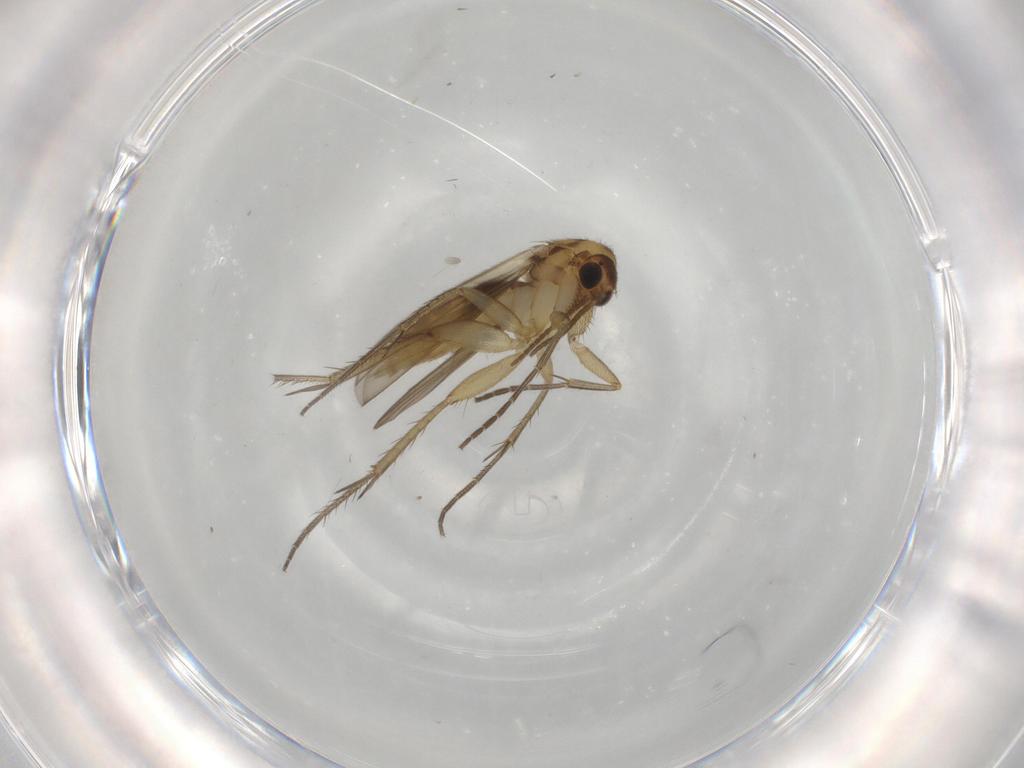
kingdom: Animalia
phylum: Arthropoda
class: Insecta
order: Diptera
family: Mycetophilidae
